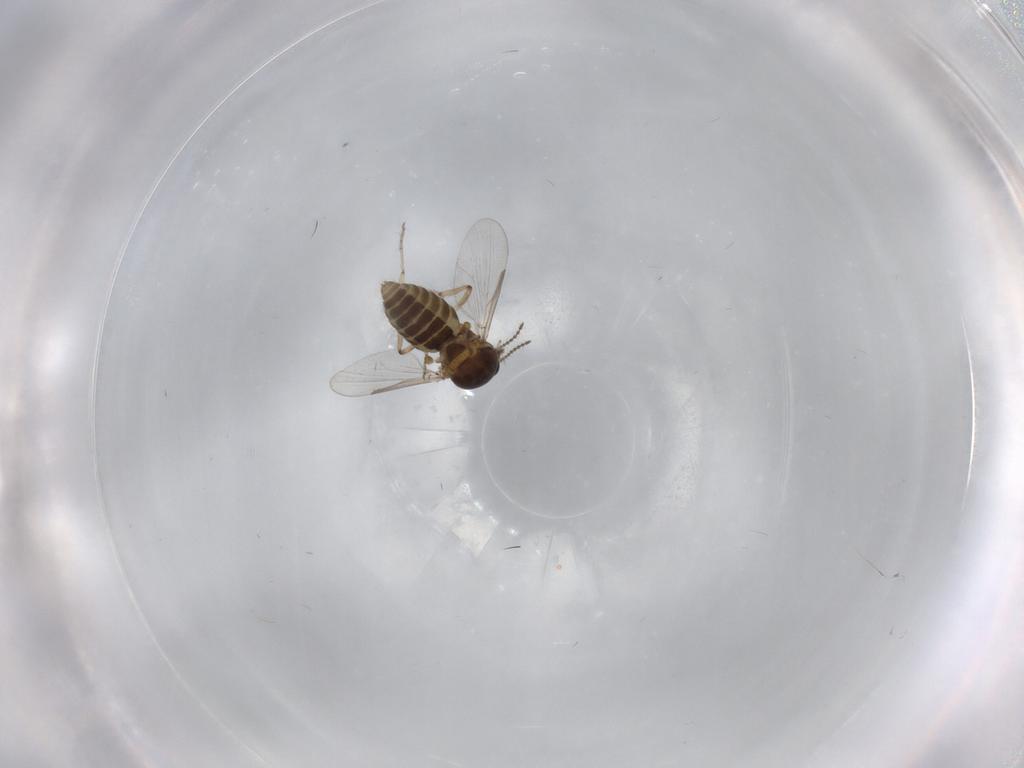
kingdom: Animalia
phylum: Arthropoda
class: Insecta
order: Diptera
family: Ceratopogonidae
